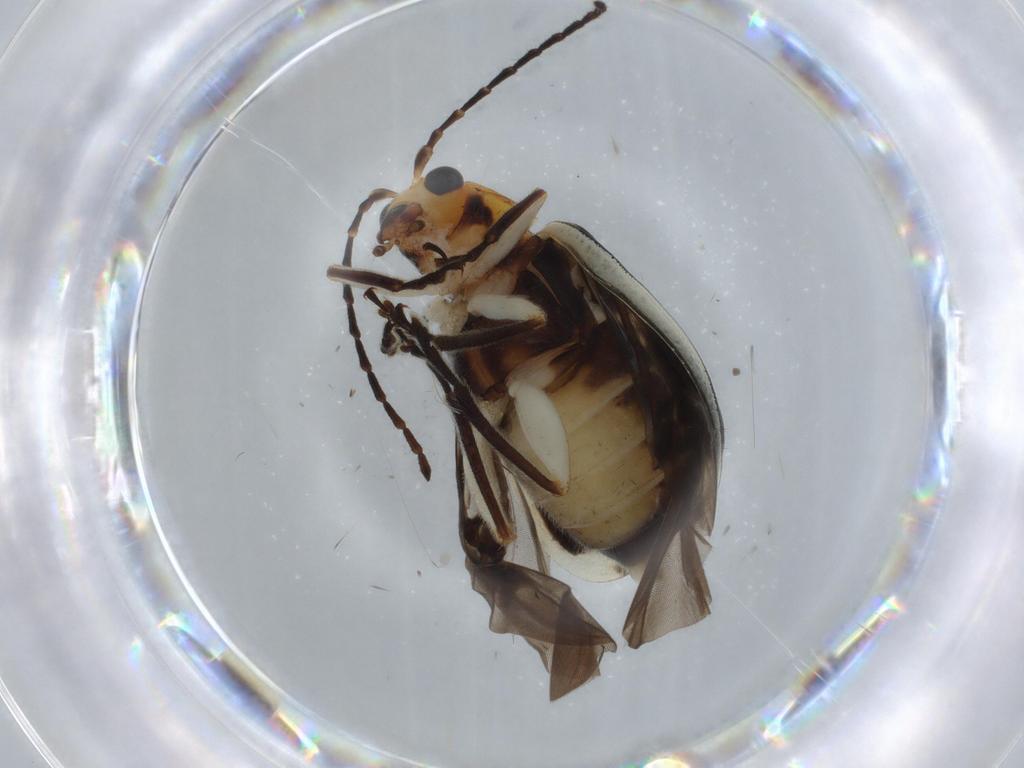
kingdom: Animalia
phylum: Arthropoda
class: Insecta
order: Coleoptera
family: Chrysomelidae
